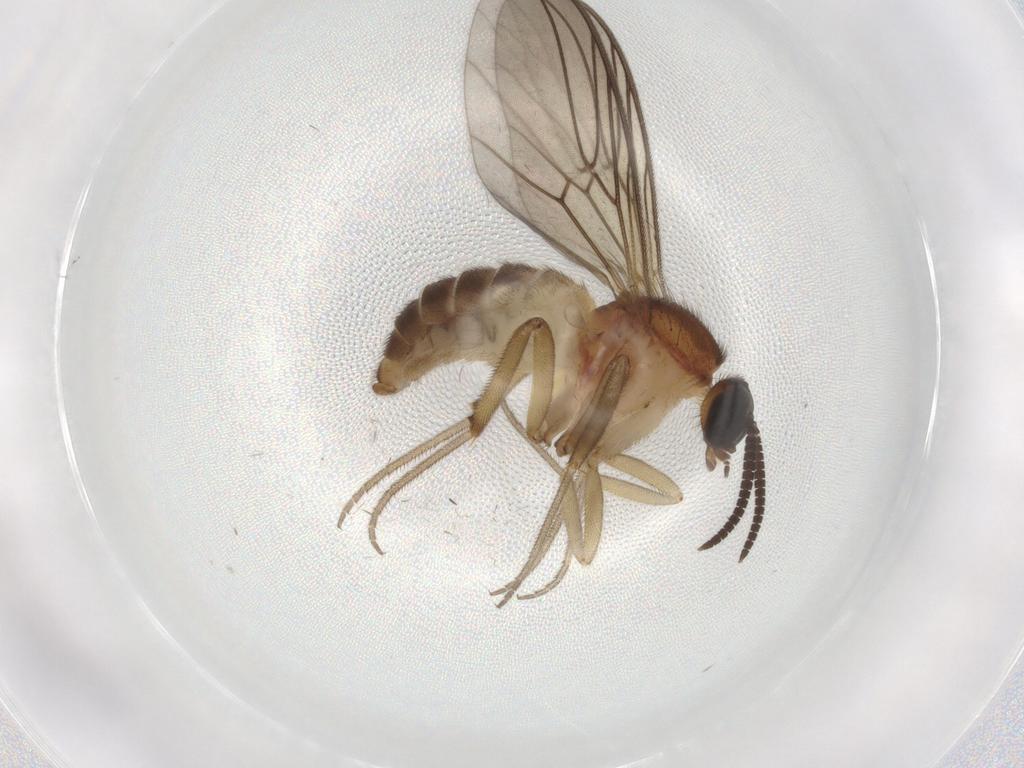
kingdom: Animalia
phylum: Arthropoda
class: Insecta
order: Diptera
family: Phoridae
